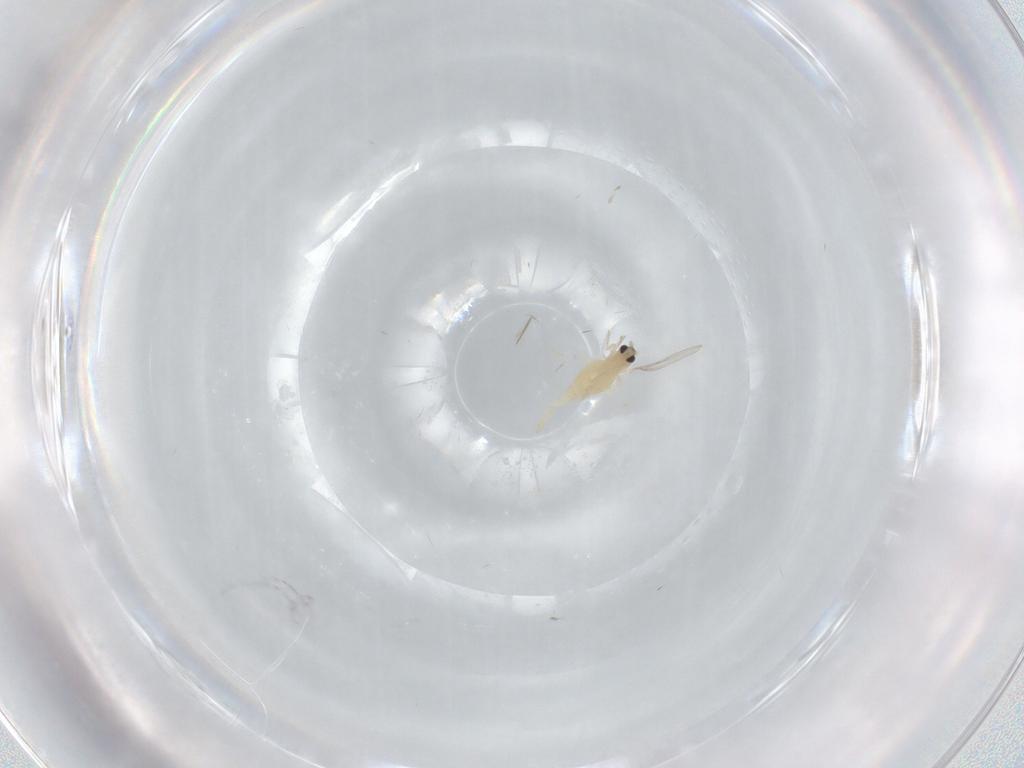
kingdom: Animalia
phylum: Arthropoda
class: Insecta
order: Diptera
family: Cecidomyiidae
